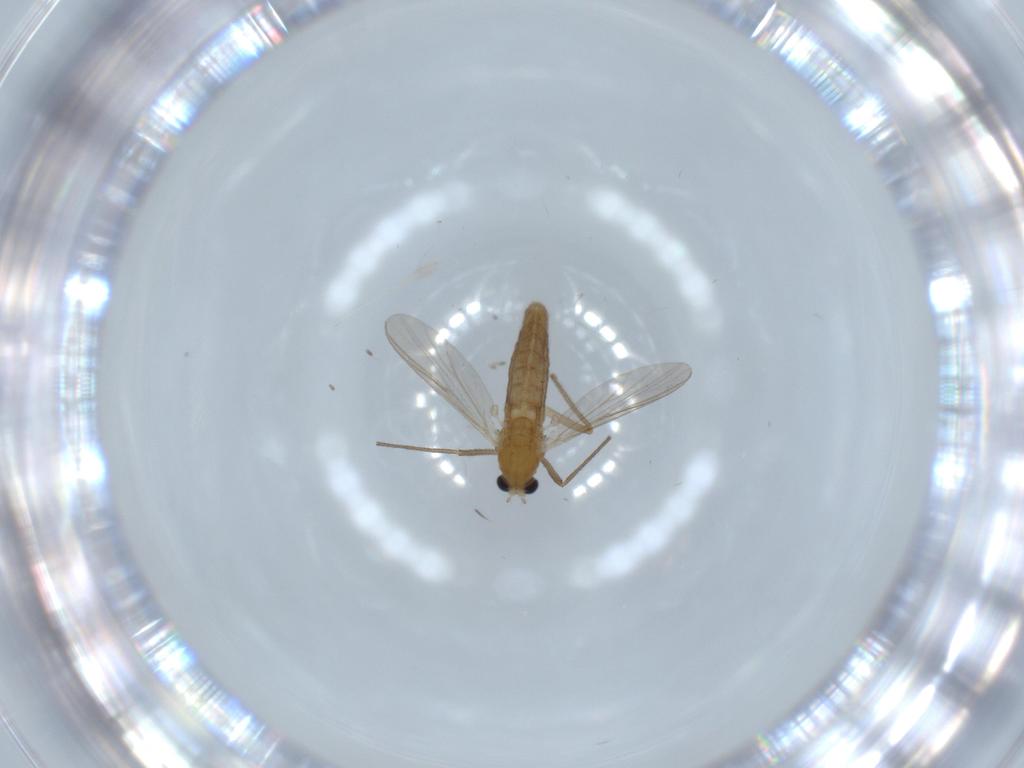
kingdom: Animalia
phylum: Arthropoda
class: Insecta
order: Diptera
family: Chironomidae
